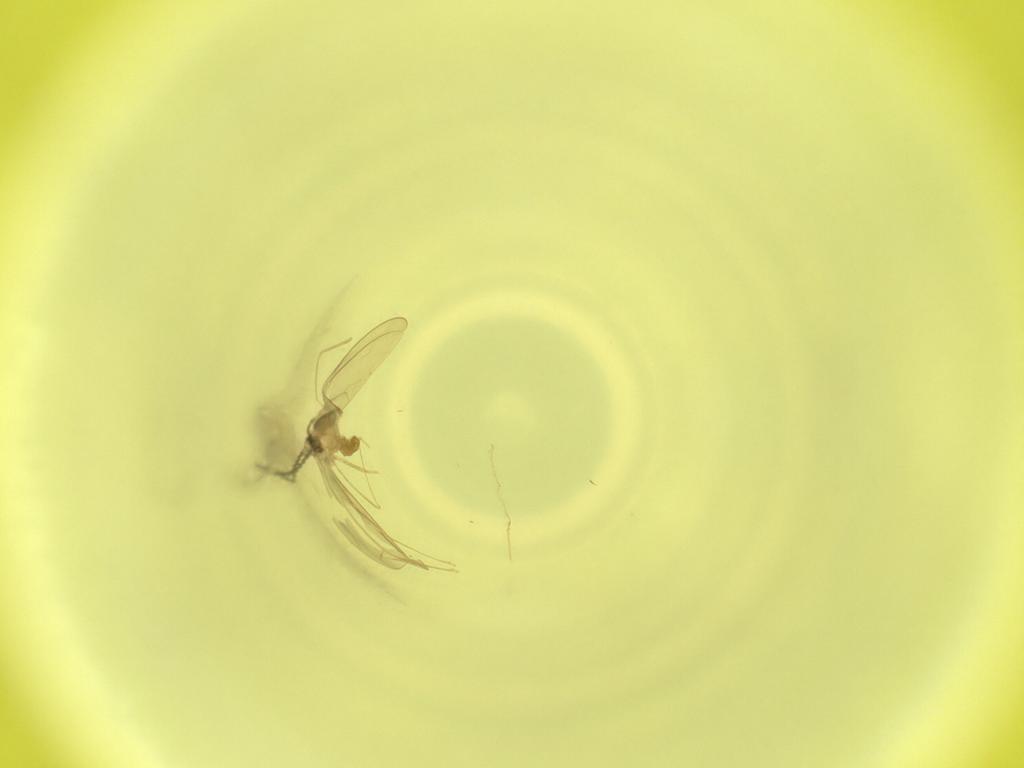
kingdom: Animalia
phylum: Arthropoda
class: Insecta
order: Diptera
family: Cecidomyiidae
